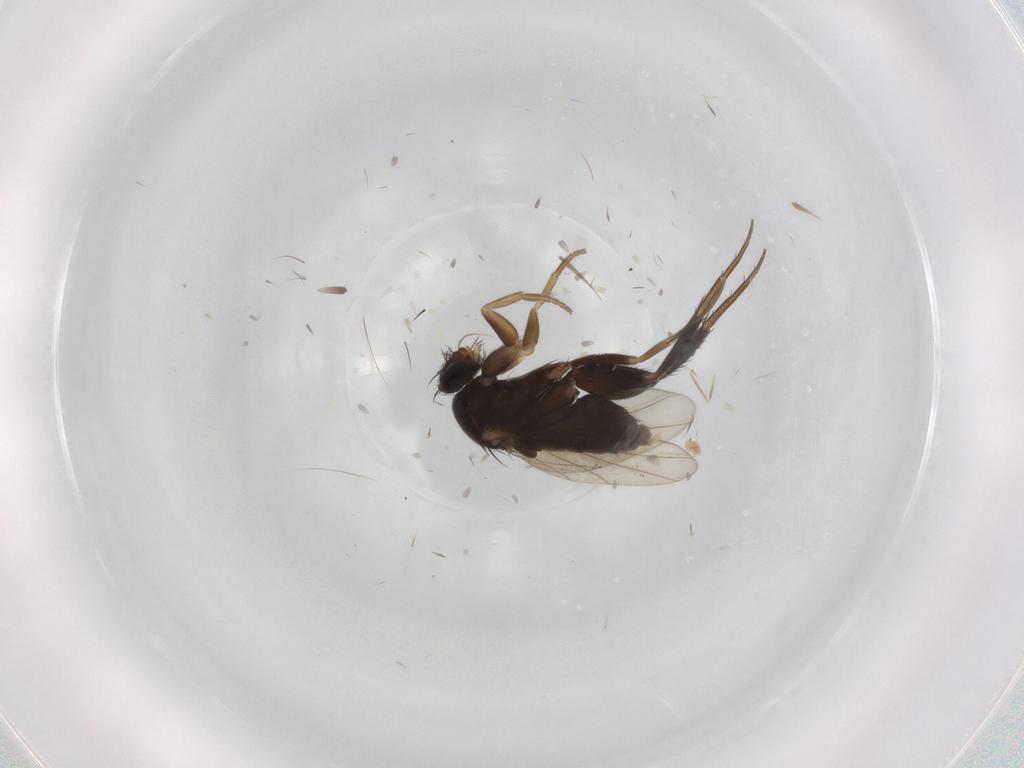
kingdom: Animalia
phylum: Arthropoda
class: Insecta
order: Diptera
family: Phoridae
